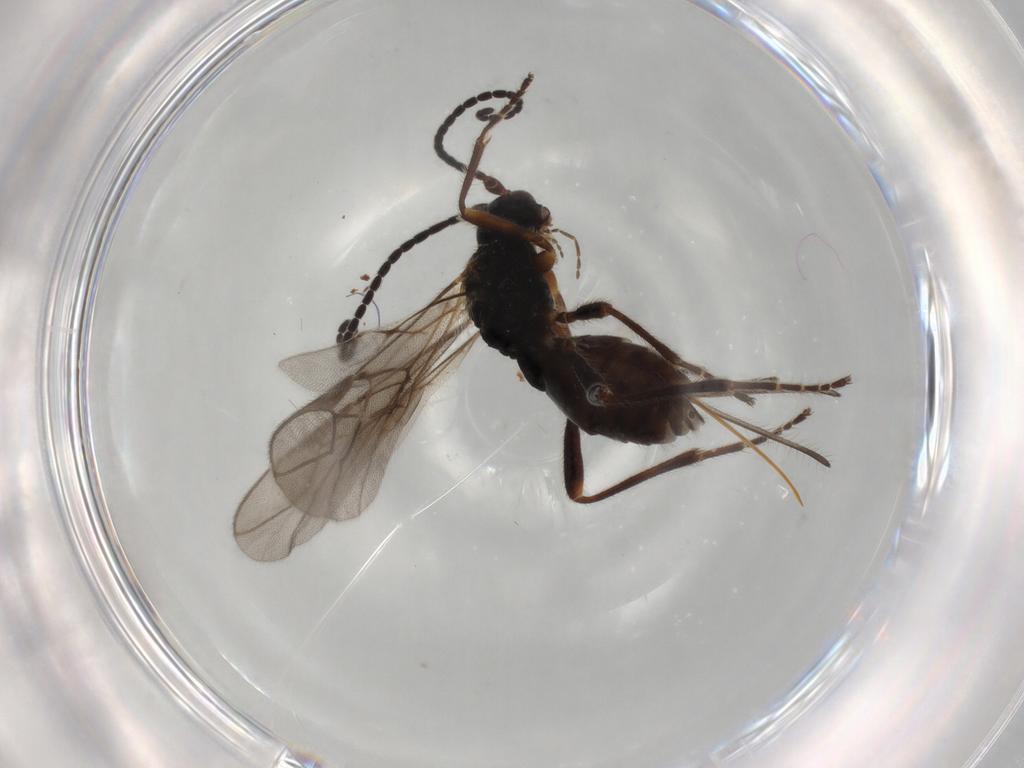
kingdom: Animalia
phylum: Arthropoda
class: Insecta
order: Hymenoptera
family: Braconidae
